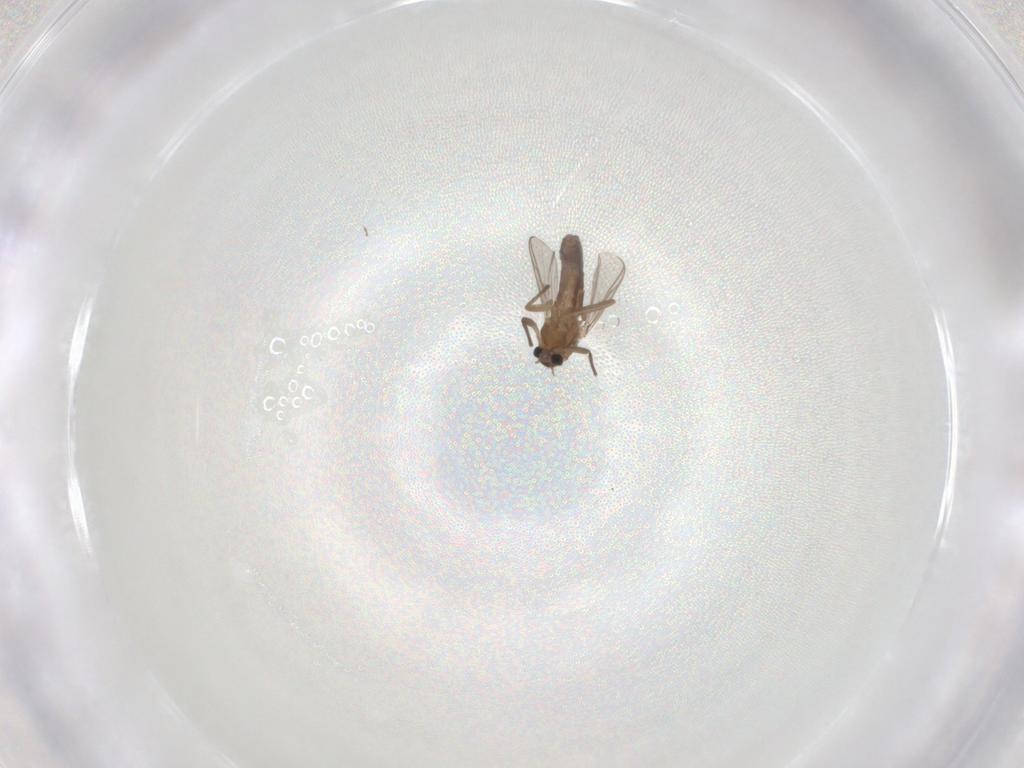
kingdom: Animalia
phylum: Arthropoda
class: Insecta
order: Diptera
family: Chironomidae
